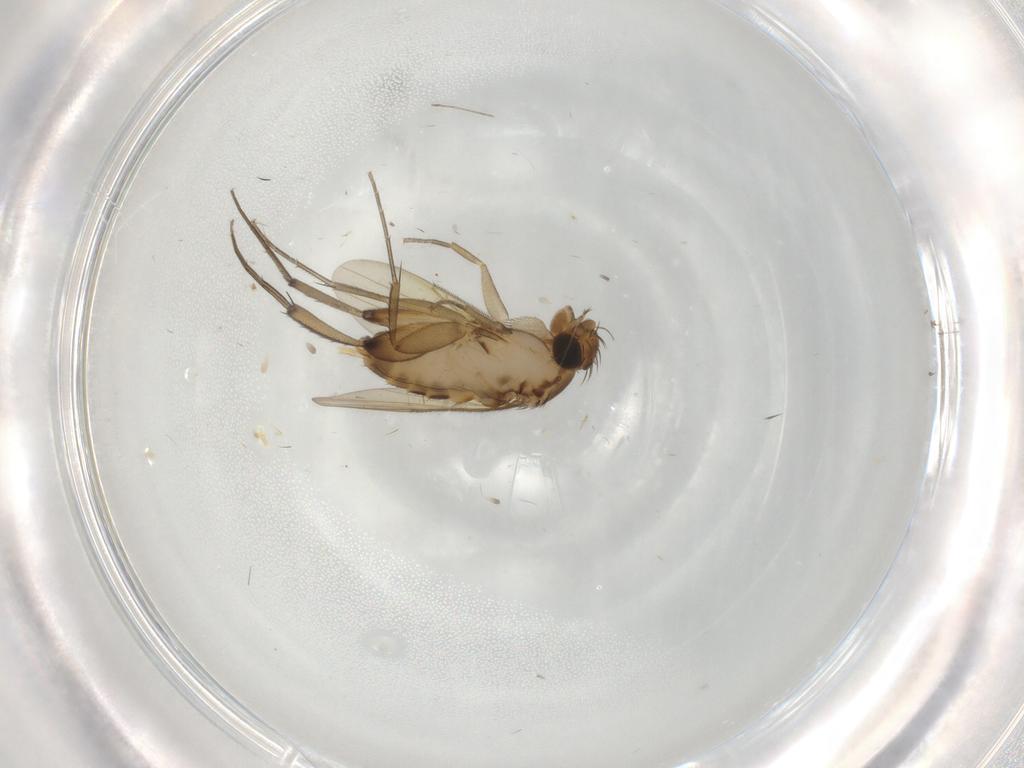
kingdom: Animalia
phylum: Arthropoda
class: Insecta
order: Diptera
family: Phoridae
